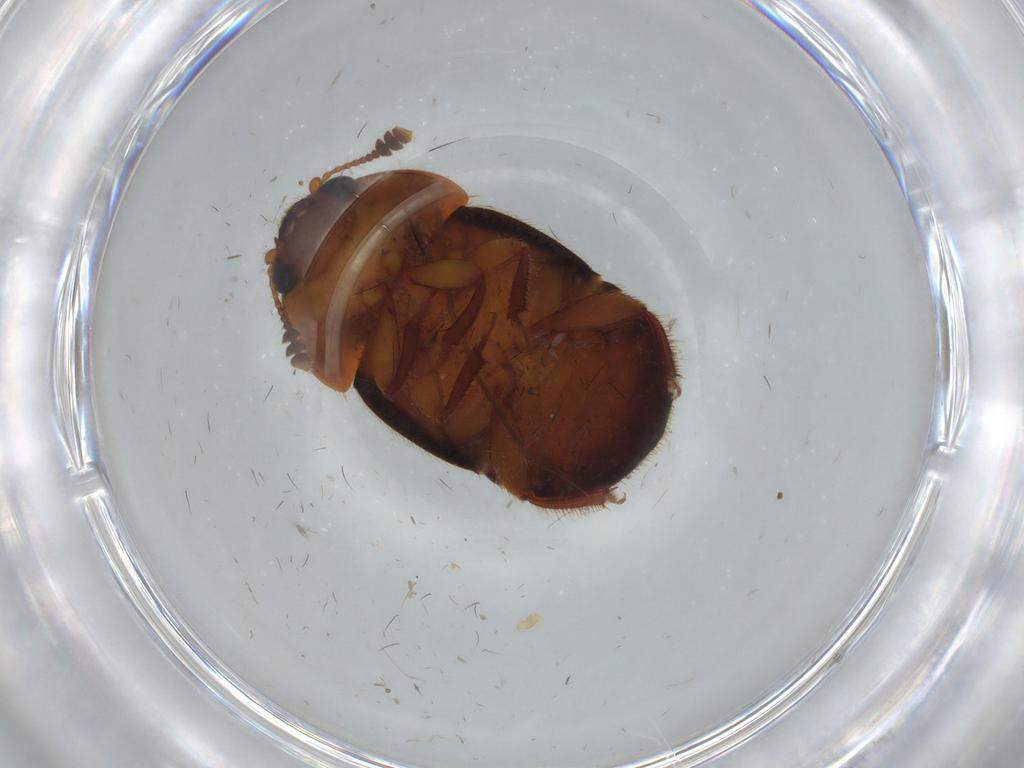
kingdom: Animalia
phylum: Arthropoda
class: Insecta
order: Coleoptera
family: Nitidulidae
